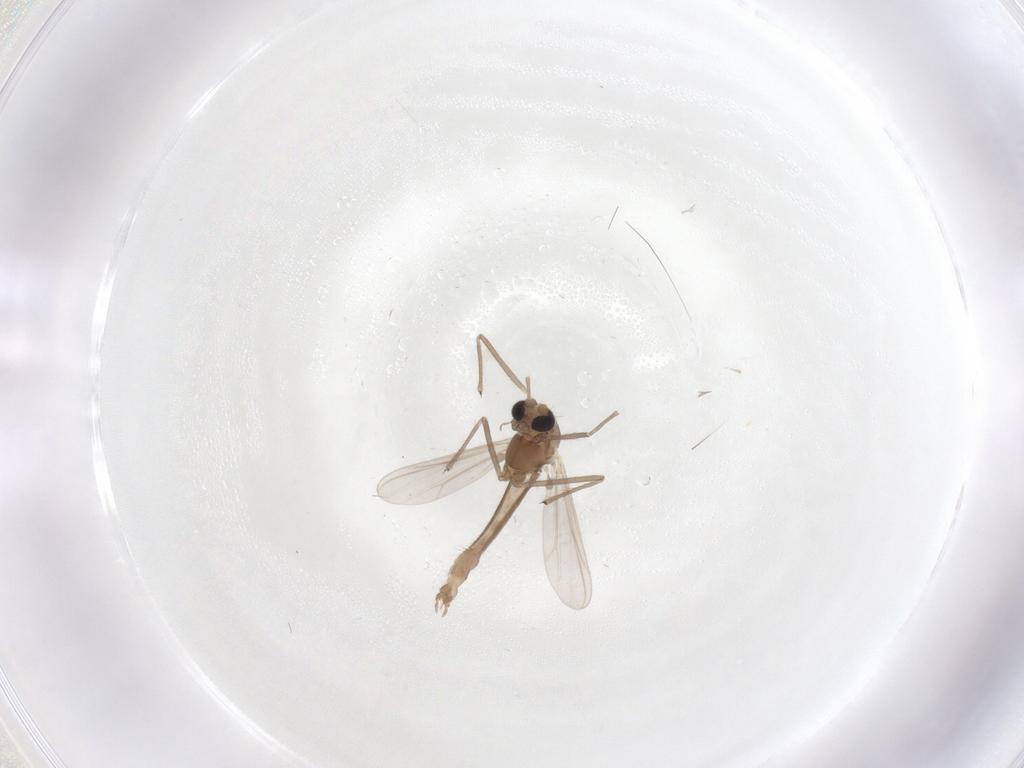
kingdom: Animalia
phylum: Arthropoda
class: Insecta
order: Diptera
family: Chironomidae
